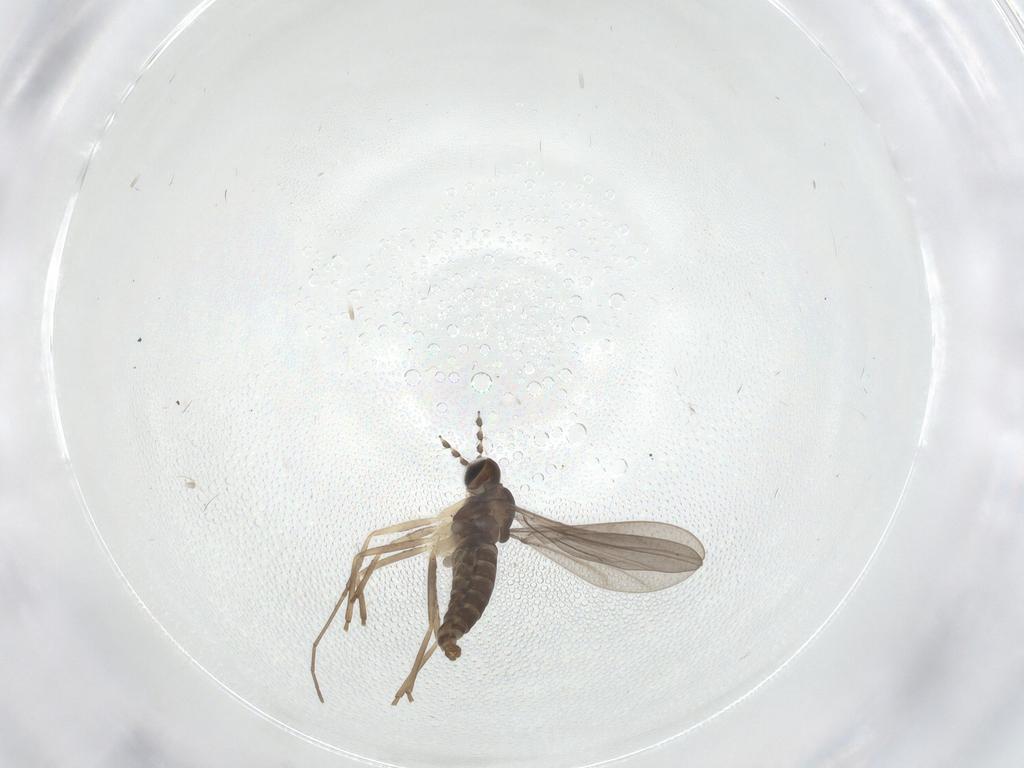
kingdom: Animalia
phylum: Arthropoda
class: Insecta
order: Diptera
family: Cecidomyiidae
